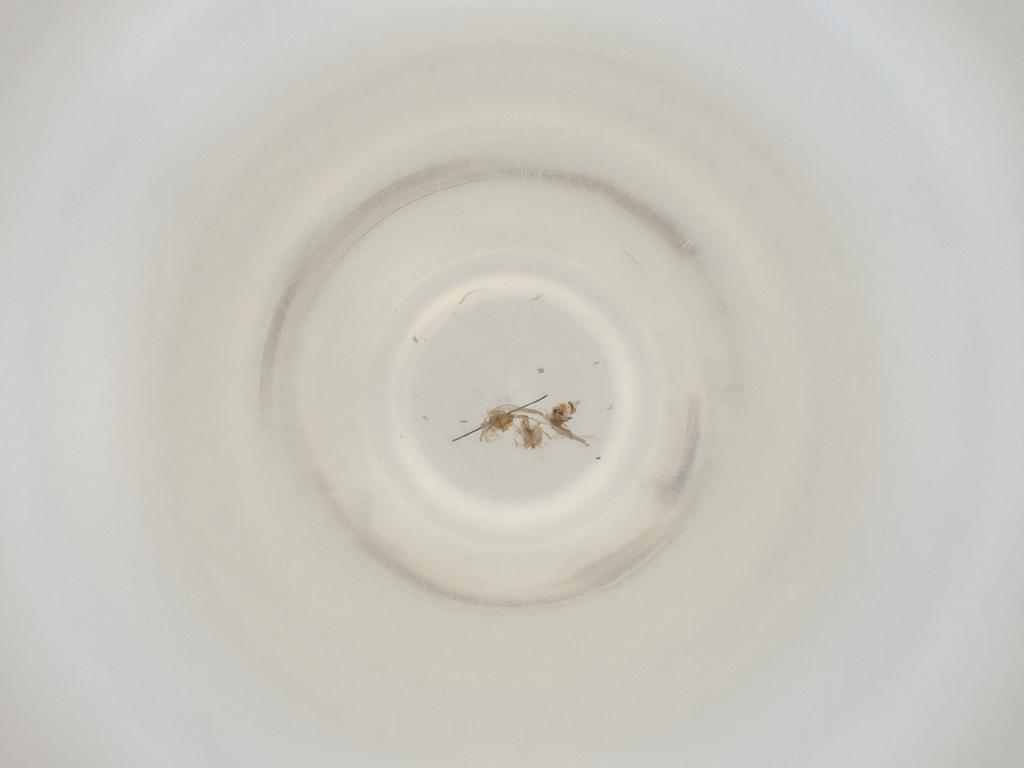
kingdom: Animalia
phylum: Arthropoda
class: Insecta
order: Diptera
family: Cecidomyiidae
